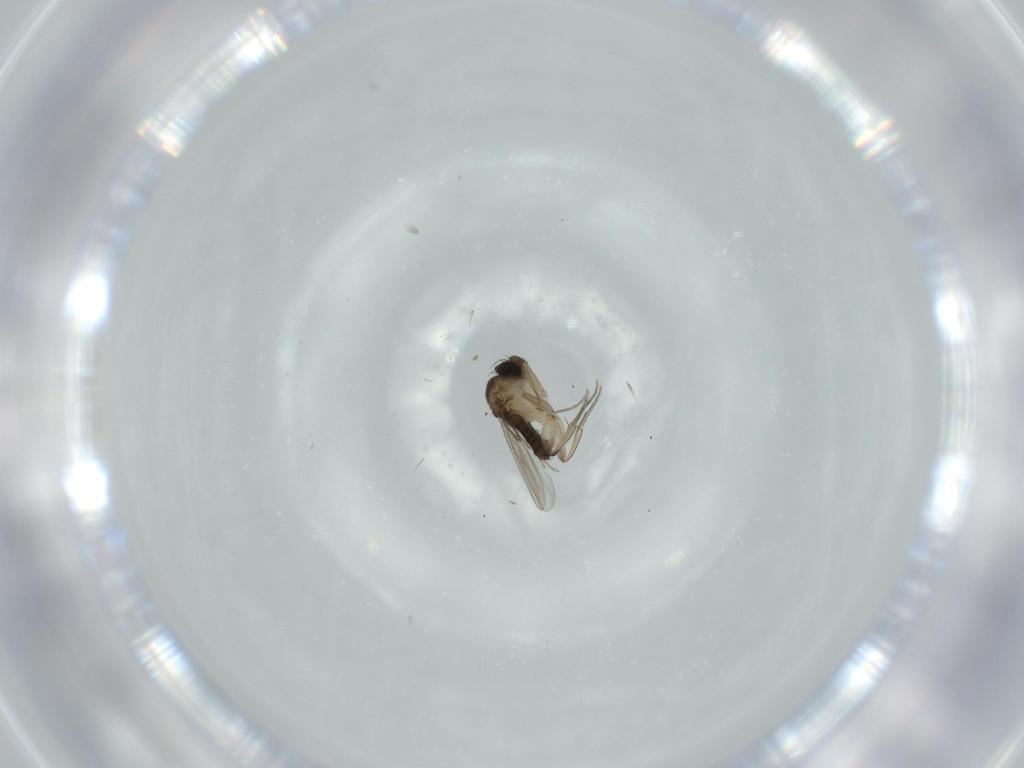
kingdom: Animalia
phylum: Arthropoda
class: Insecta
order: Diptera
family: Phoridae
